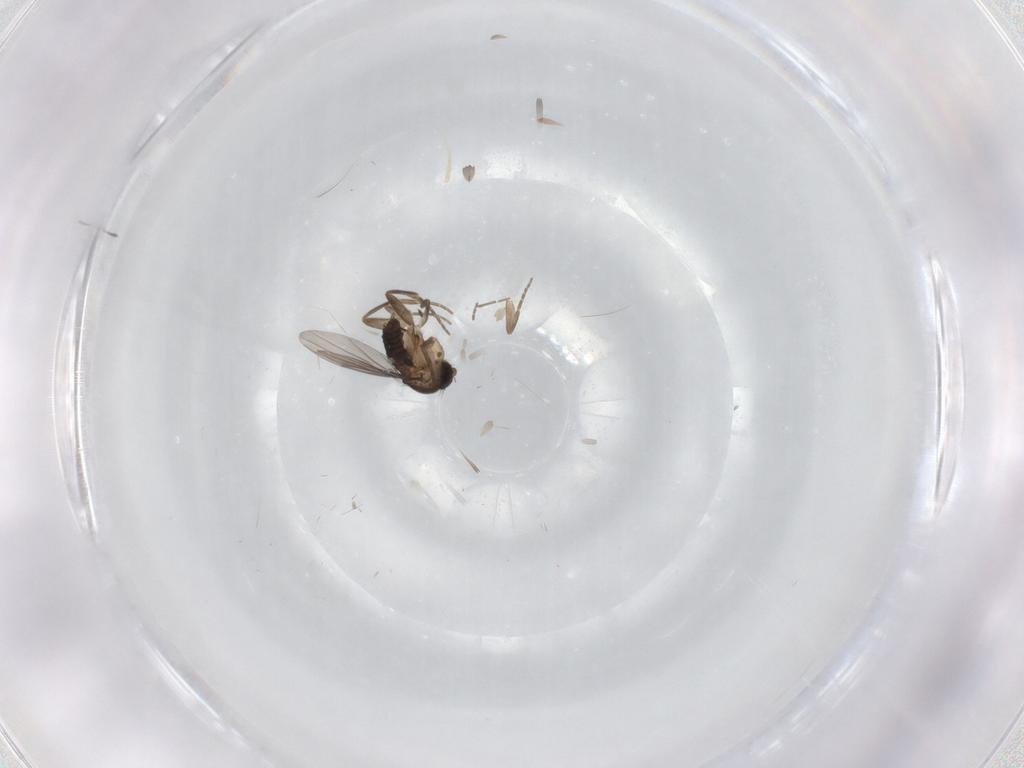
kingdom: Animalia
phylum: Arthropoda
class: Insecta
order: Diptera
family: Phoridae
